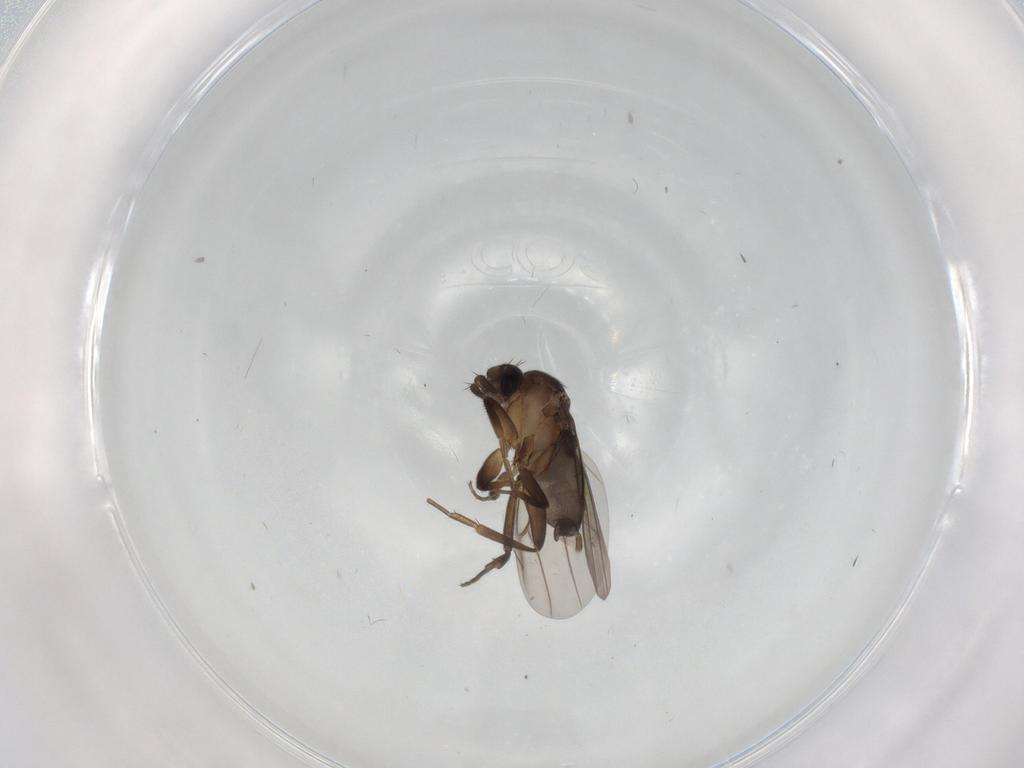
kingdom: Animalia
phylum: Arthropoda
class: Insecta
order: Diptera
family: Phoridae
